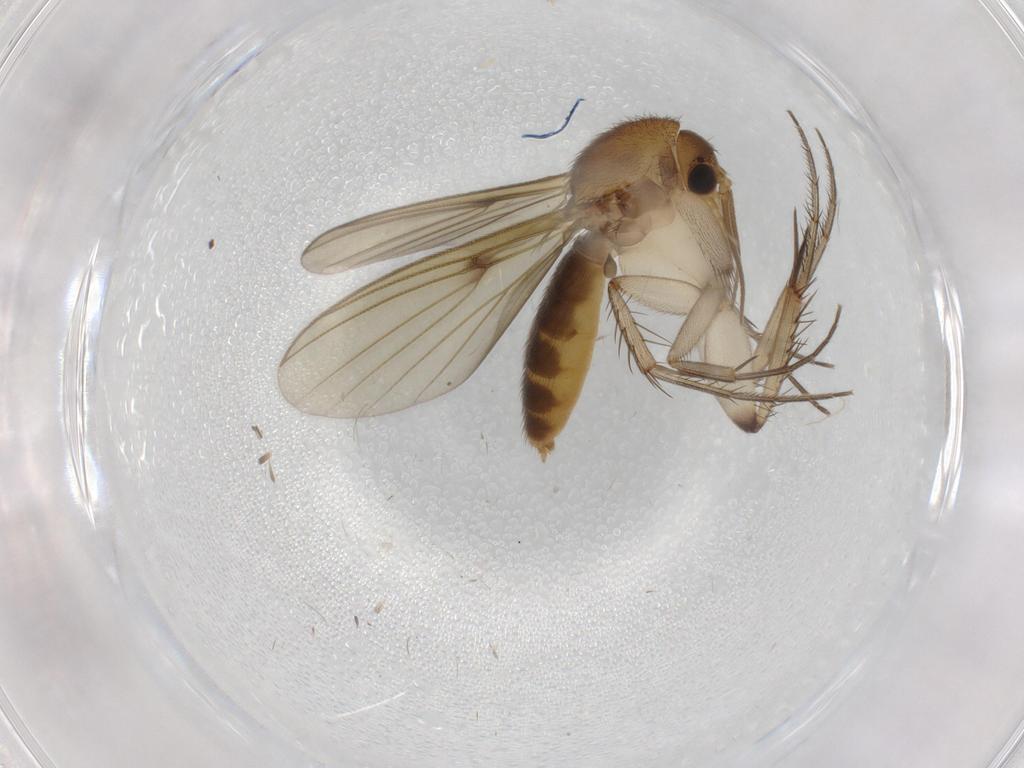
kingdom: Animalia
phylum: Arthropoda
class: Insecta
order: Diptera
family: Mycetophilidae
